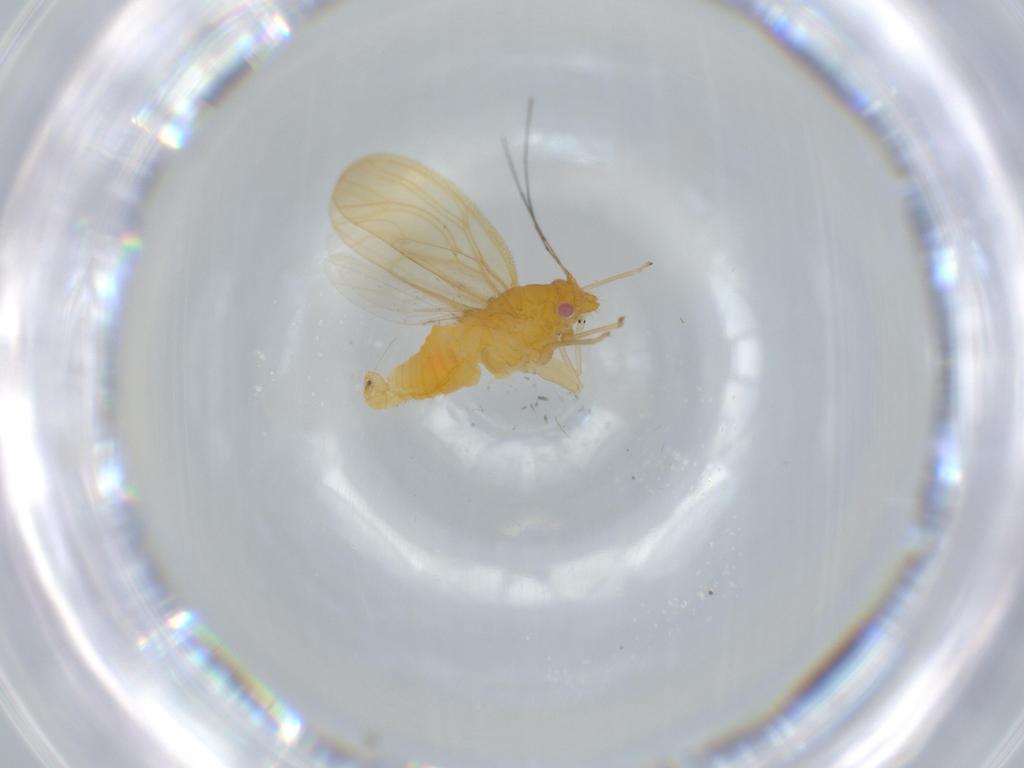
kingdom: Animalia
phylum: Arthropoda
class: Insecta
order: Hemiptera
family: Psyllidae
